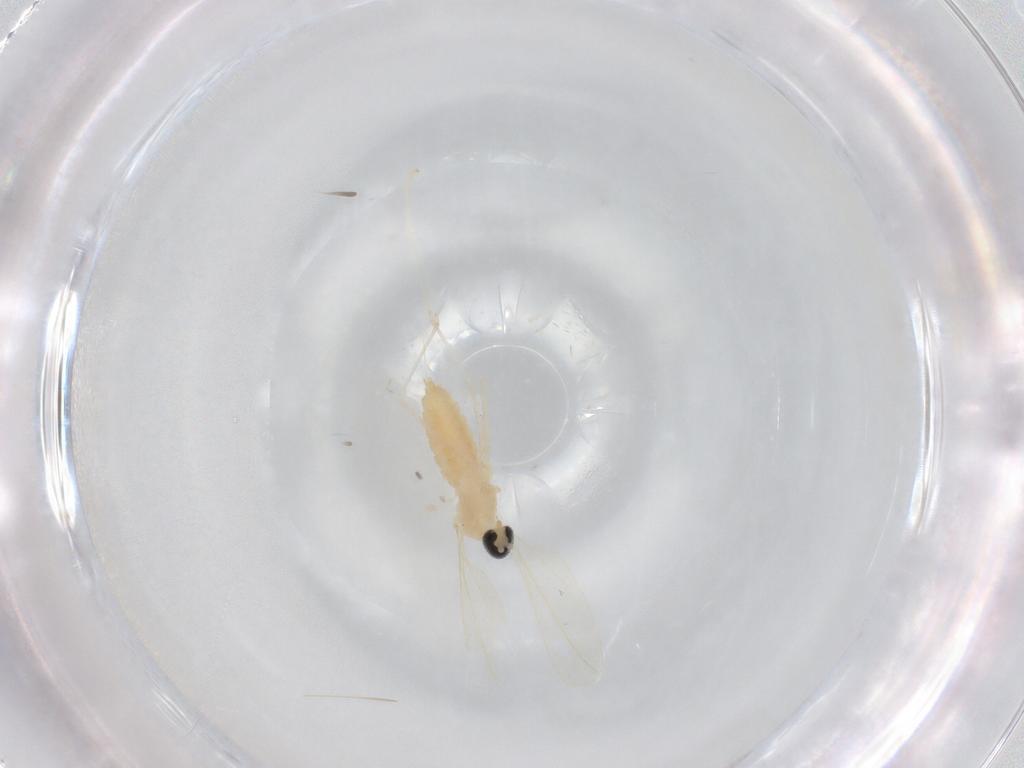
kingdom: Animalia
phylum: Arthropoda
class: Insecta
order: Diptera
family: Cecidomyiidae
